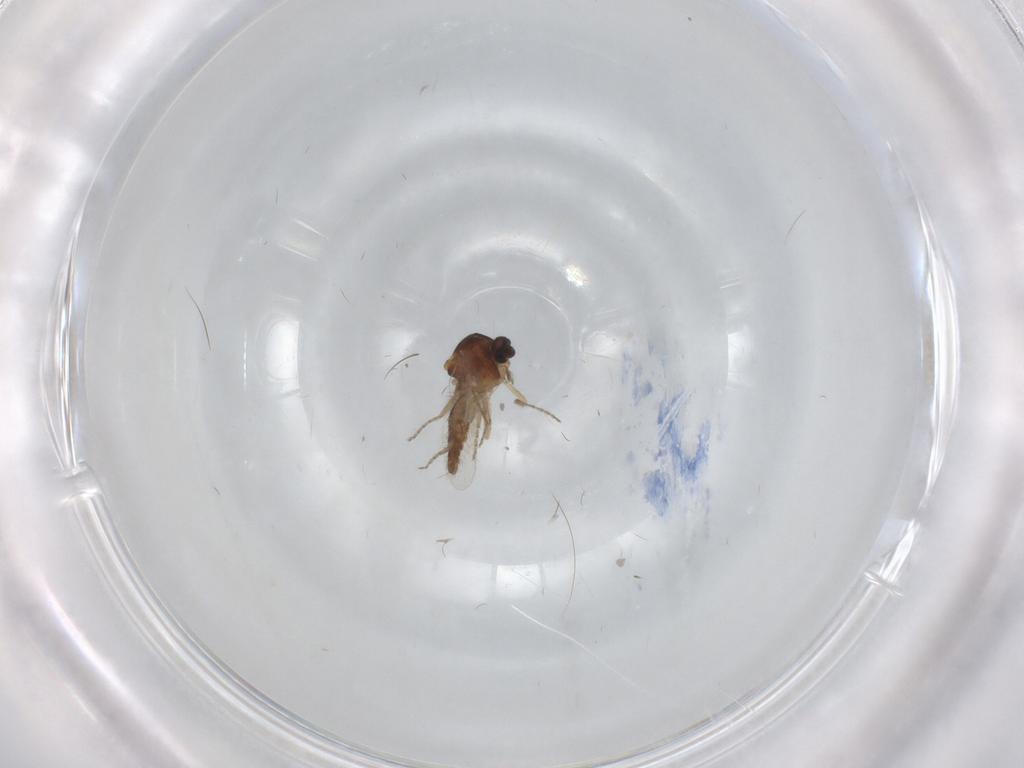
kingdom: Animalia
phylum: Arthropoda
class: Insecta
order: Diptera
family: Ceratopogonidae
